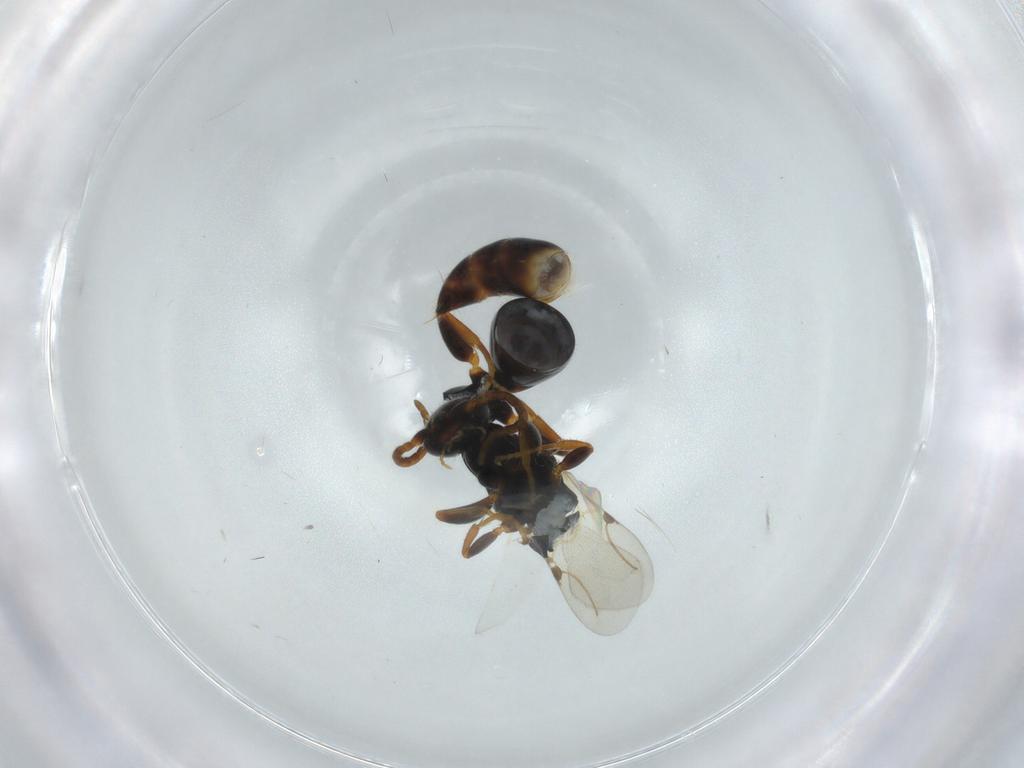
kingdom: Animalia
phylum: Arthropoda
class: Insecta
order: Hymenoptera
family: Bethylidae
